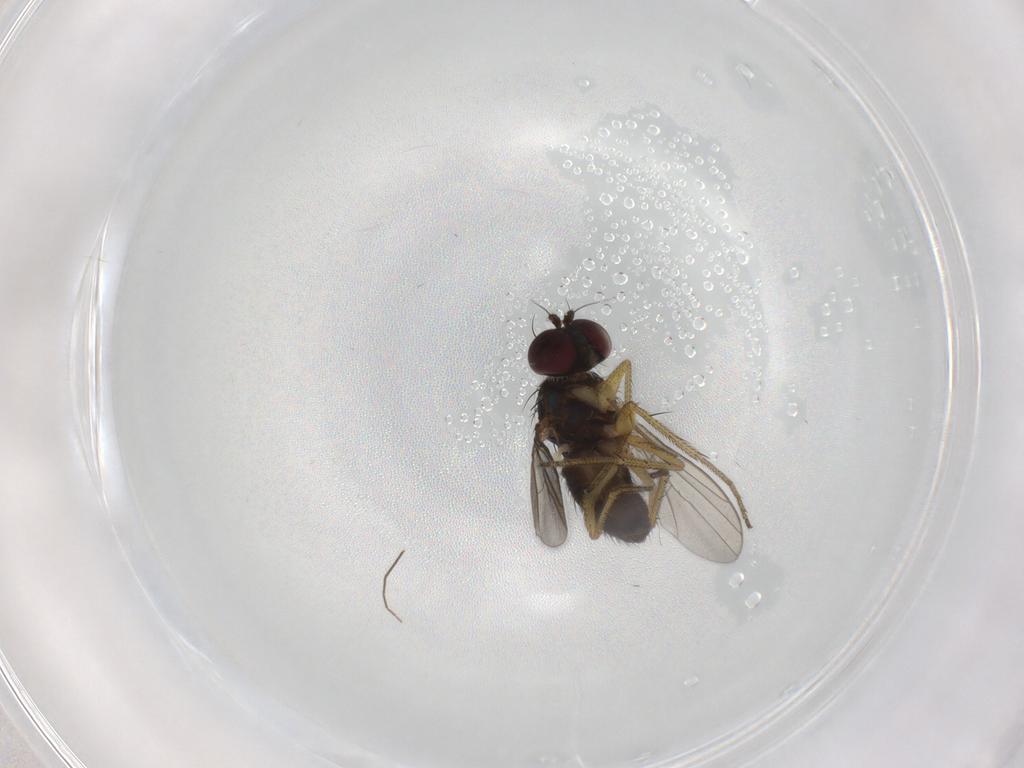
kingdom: Animalia
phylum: Arthropoda
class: Insecta
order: Diptera
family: Dolichopodidae
